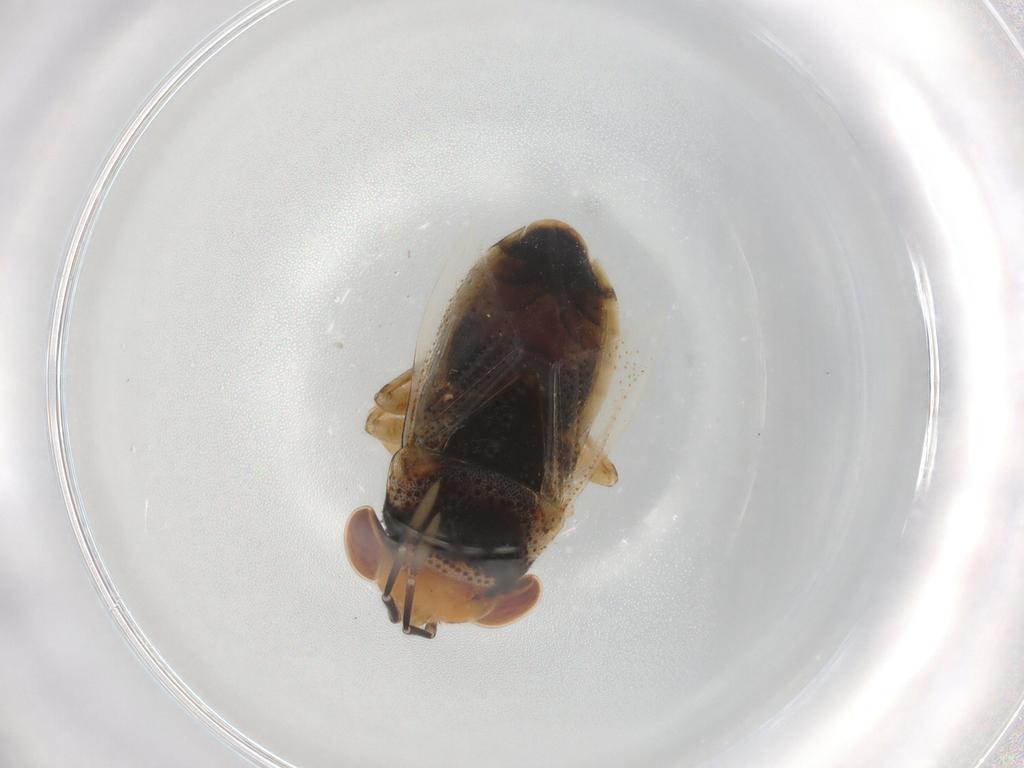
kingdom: Animalia
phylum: Arthropoda
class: Insecta
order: Hemiptera
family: Geocoridae
